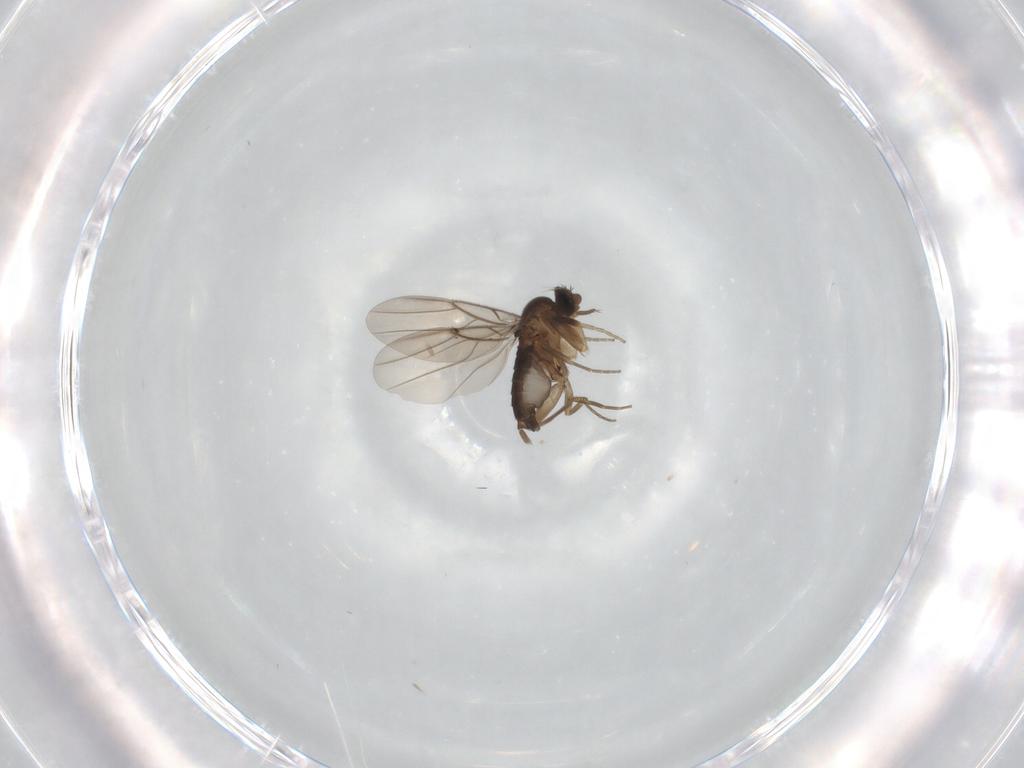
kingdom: Animalia
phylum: Arthropoda
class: Insecta
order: Diptera
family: Phoridae
